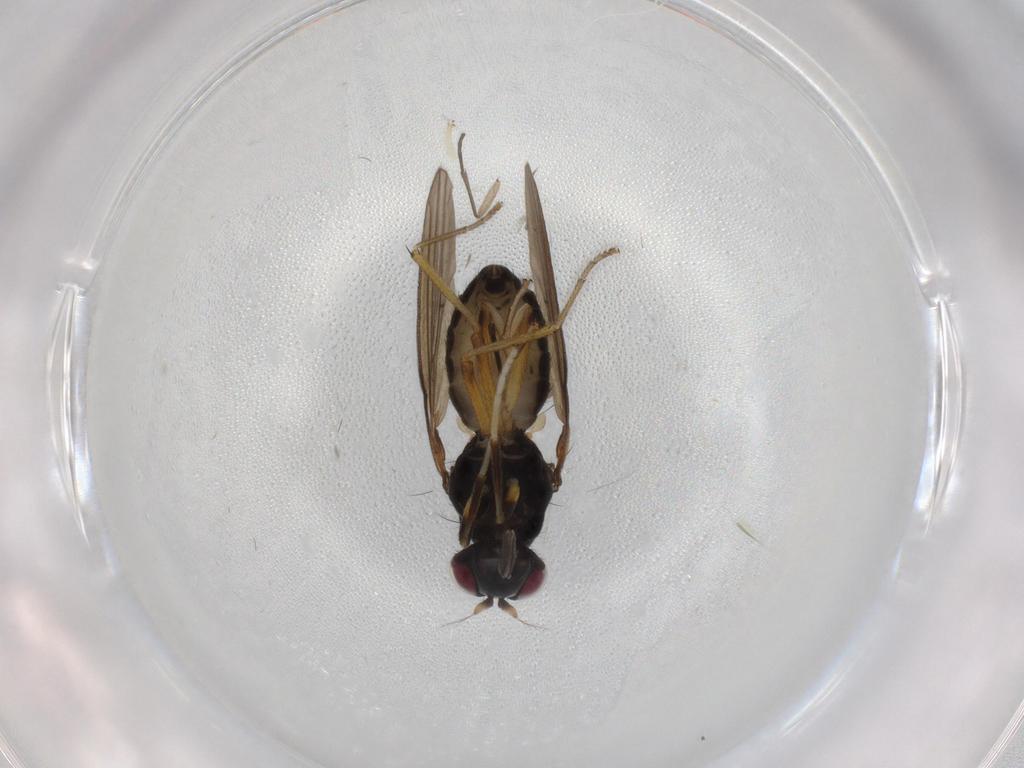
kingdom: Animalia
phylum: Arthropoda
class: Insecta
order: Diptera
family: Lauxaniidae
